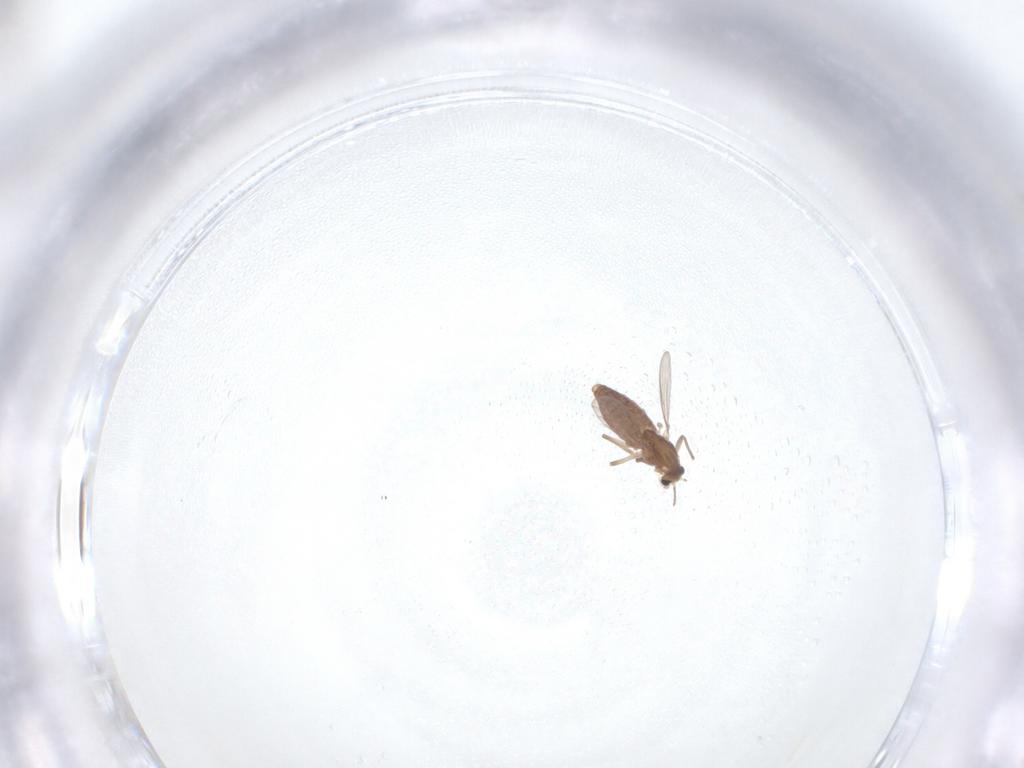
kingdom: Animalia
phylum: Arthropoda
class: Insecta
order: Diptera
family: Chironomidae
